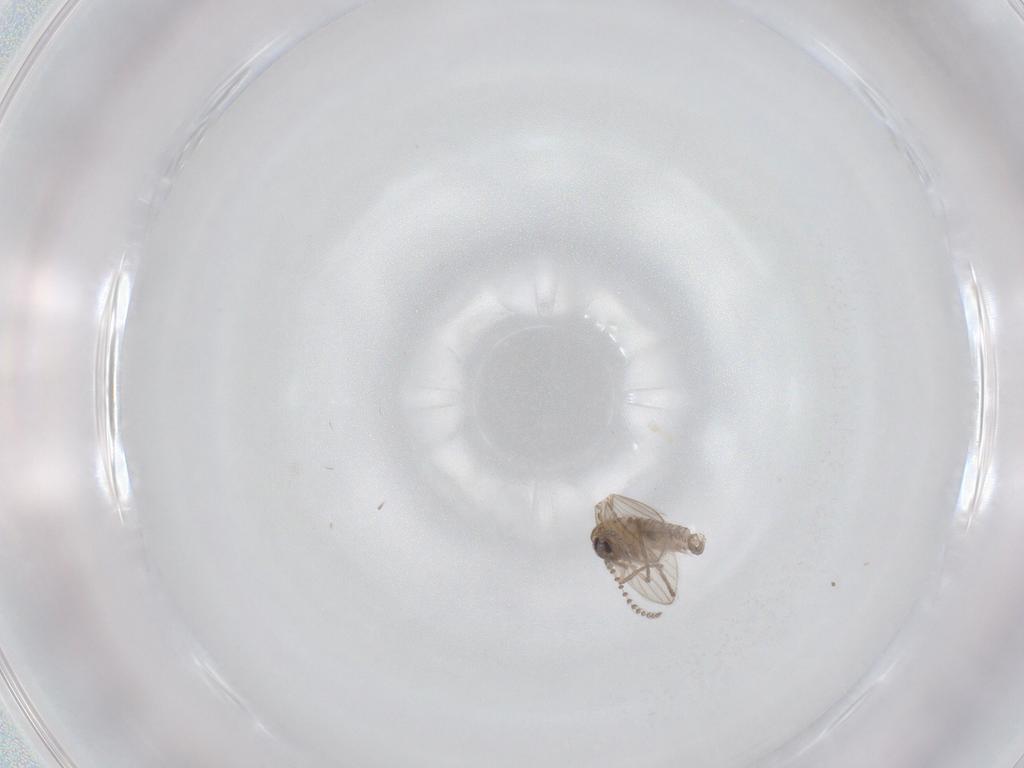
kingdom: Animalia
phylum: Arthropoda
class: Insecta
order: Diptera
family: Psychodidae
